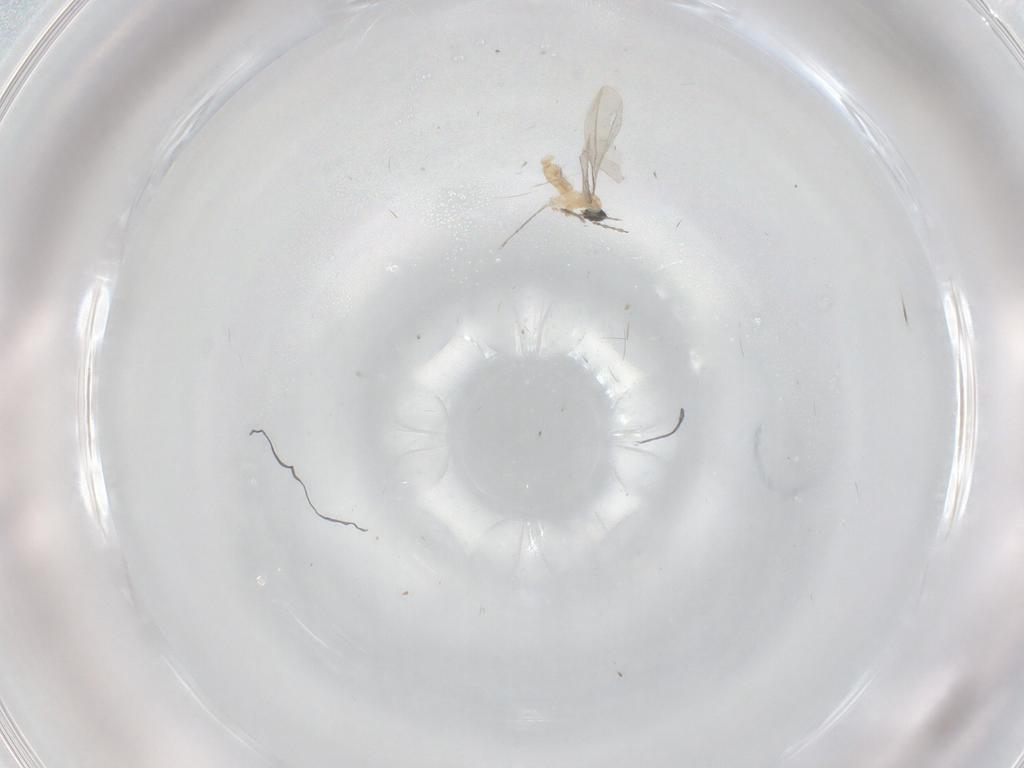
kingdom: Animalia
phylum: Arthropoda
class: Insecta
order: Diptera
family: Cecidomyiidae
